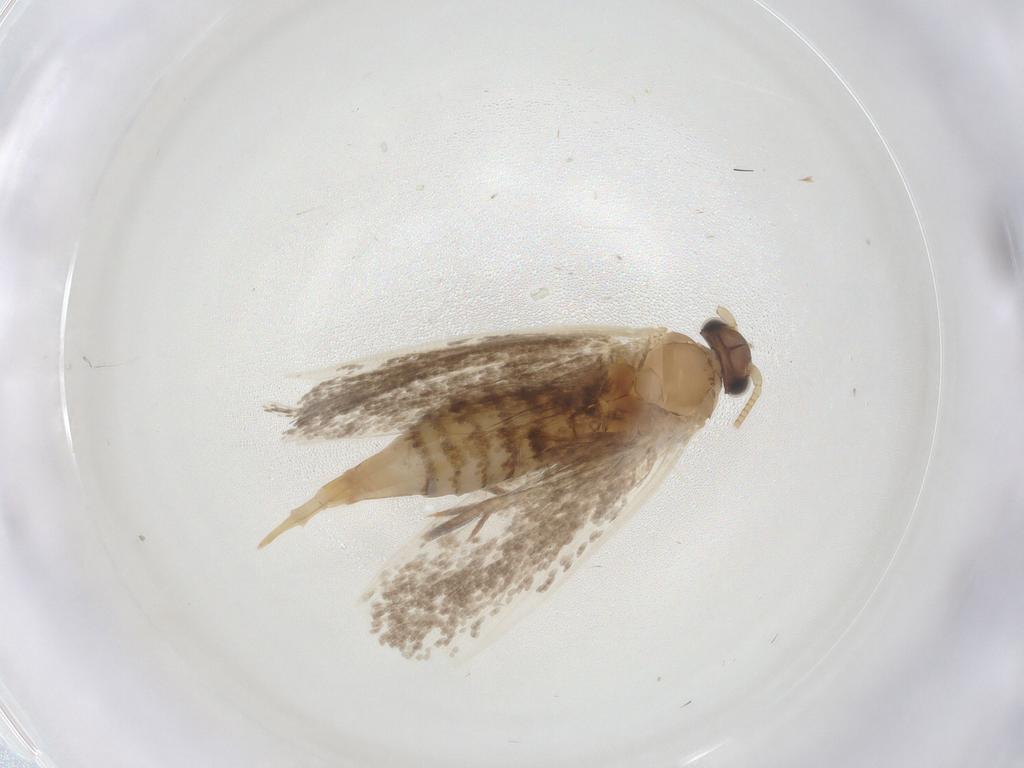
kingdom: Animalia
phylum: Arthropoda
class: Insecta
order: Lepidoptera
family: Tineidae
